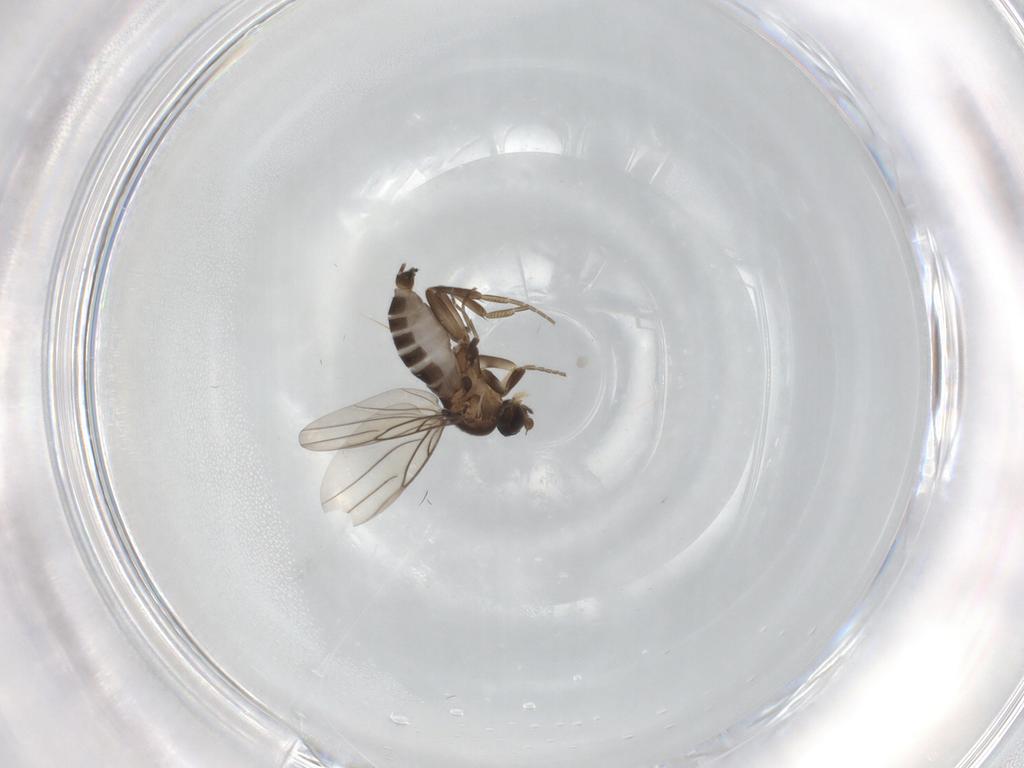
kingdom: Animalia
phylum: Arthropoda
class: Insecta
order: Diptera
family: Phoridae
